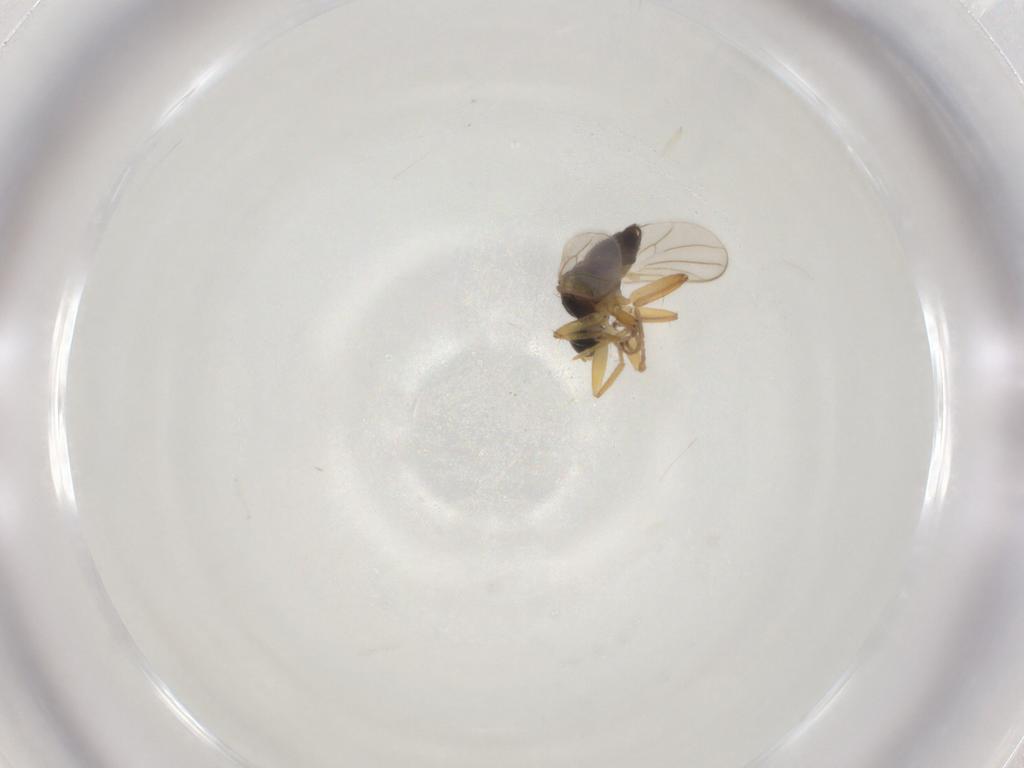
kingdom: Animalia
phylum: Arthropoda
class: Insecta
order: Diptera
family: Hybotidae
